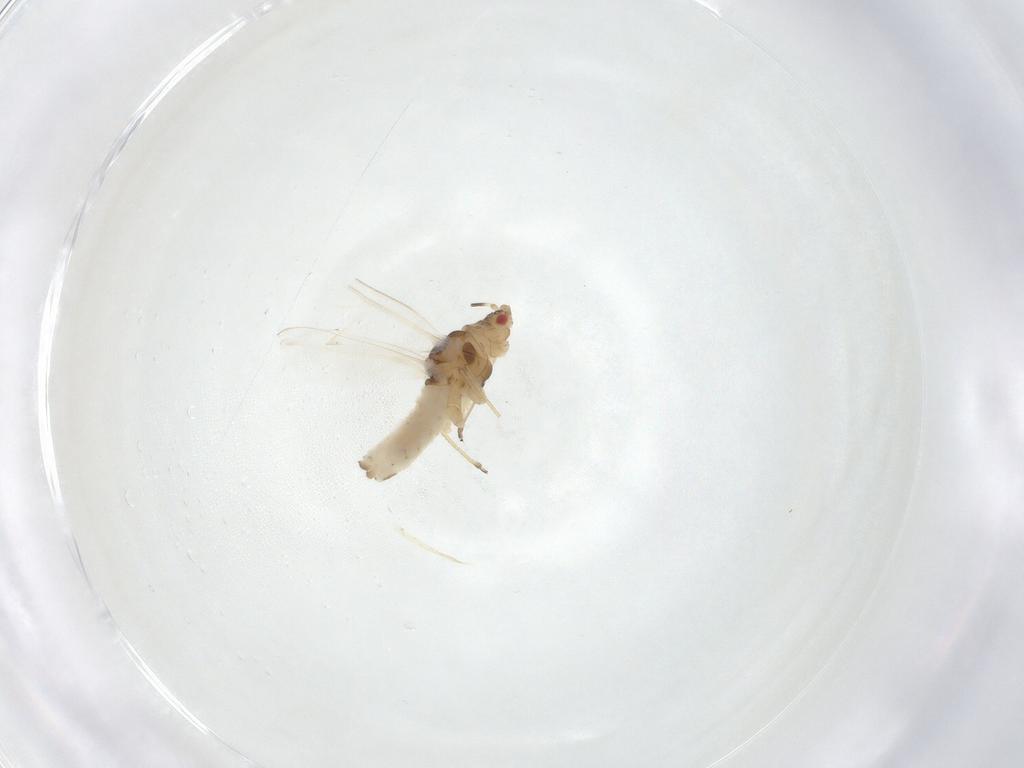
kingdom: Animalia
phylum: Arthropoda
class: Insecta
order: Hemiptera
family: Aphididae
